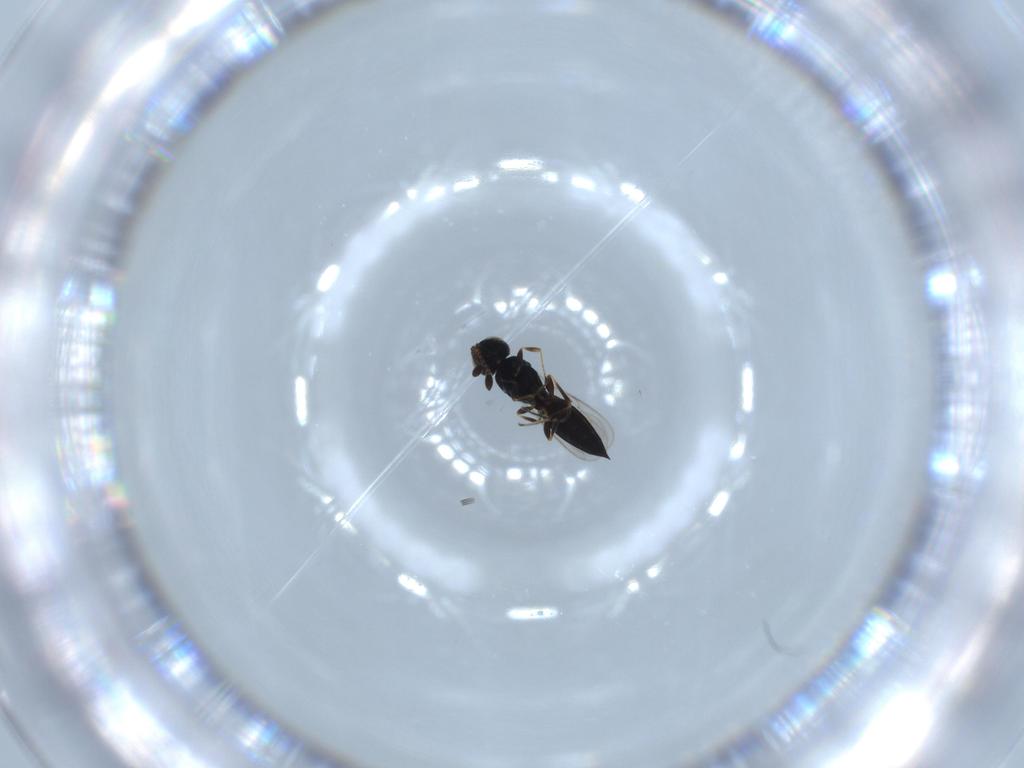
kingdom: Animalia
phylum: Arthropoda
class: Insecta
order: Hymenoptera
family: Scelionidae
